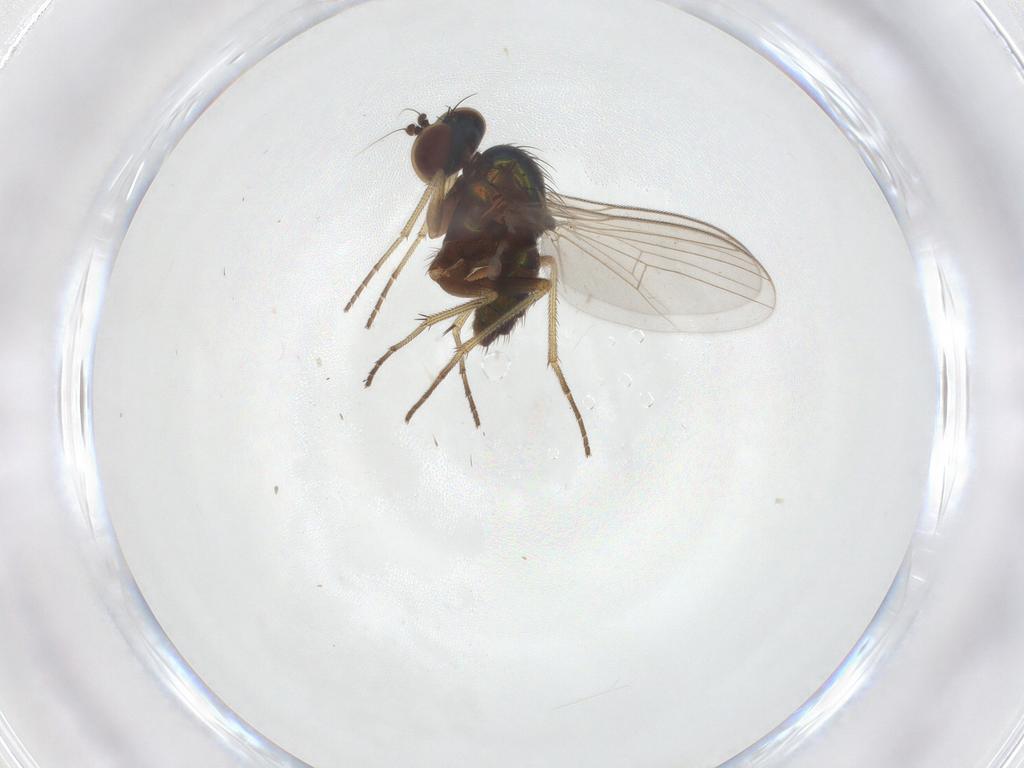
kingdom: Animalia
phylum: Arthropoda
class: Insecta
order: Diptera
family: Dolichopodidae
